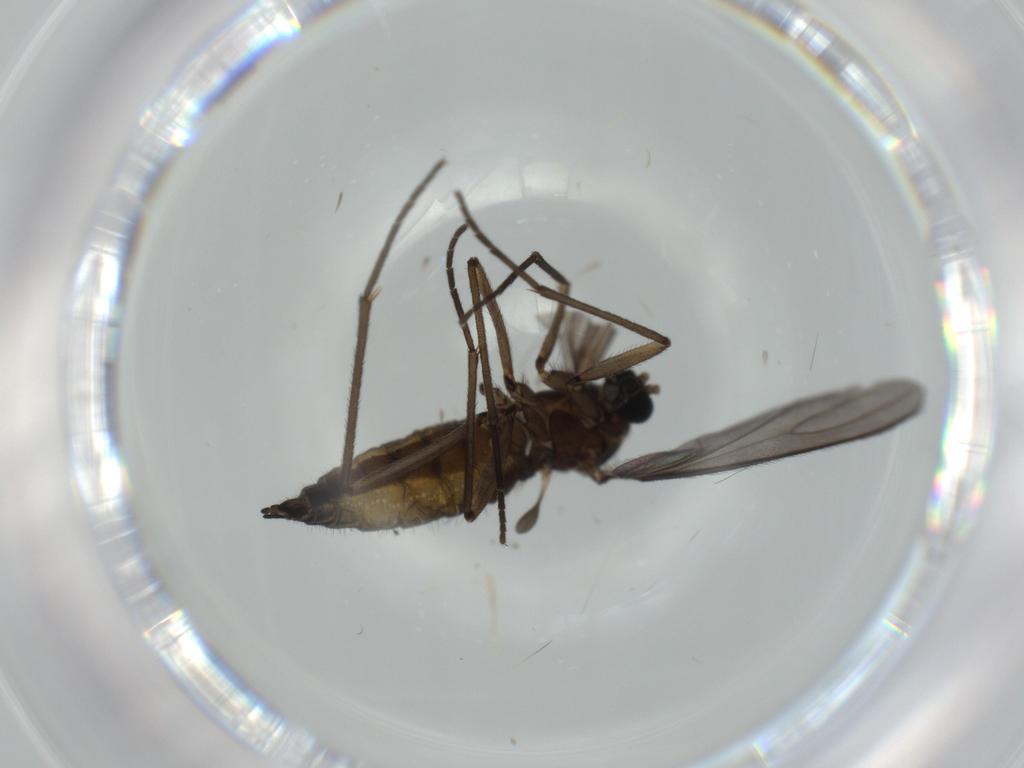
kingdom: Animalia
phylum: Arthropoda
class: Insecta
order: Diptera
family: Sciaridae
